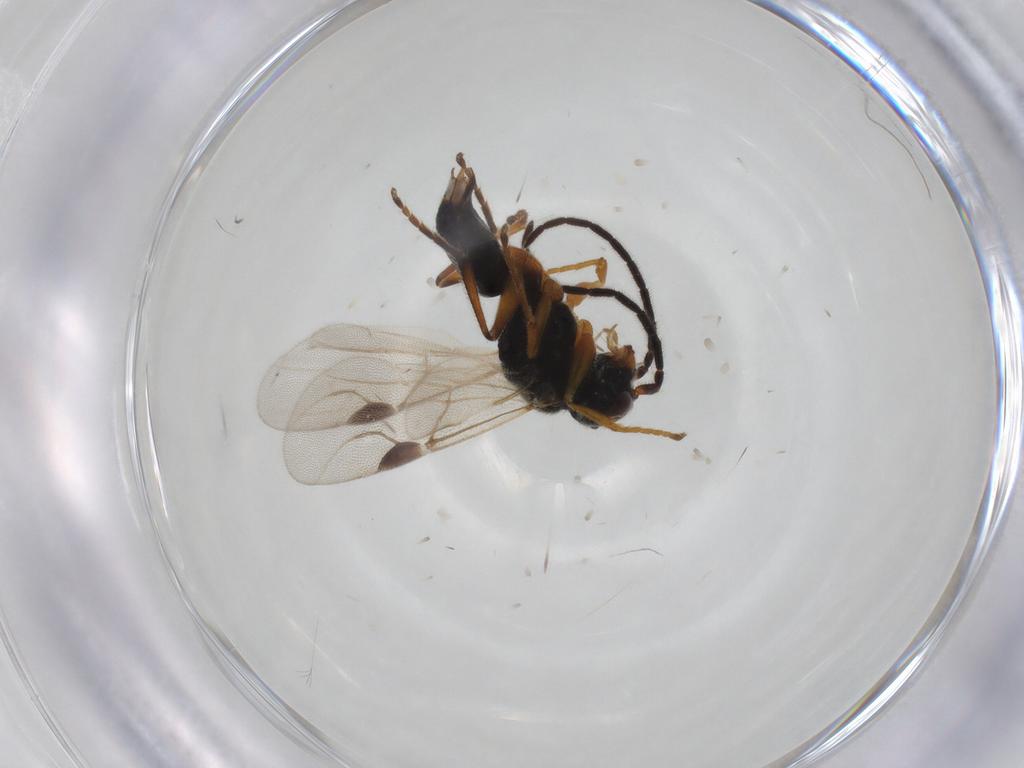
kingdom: Animalia
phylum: Arthropoda
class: Insecta
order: Hymenoptera
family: Dryinidae
